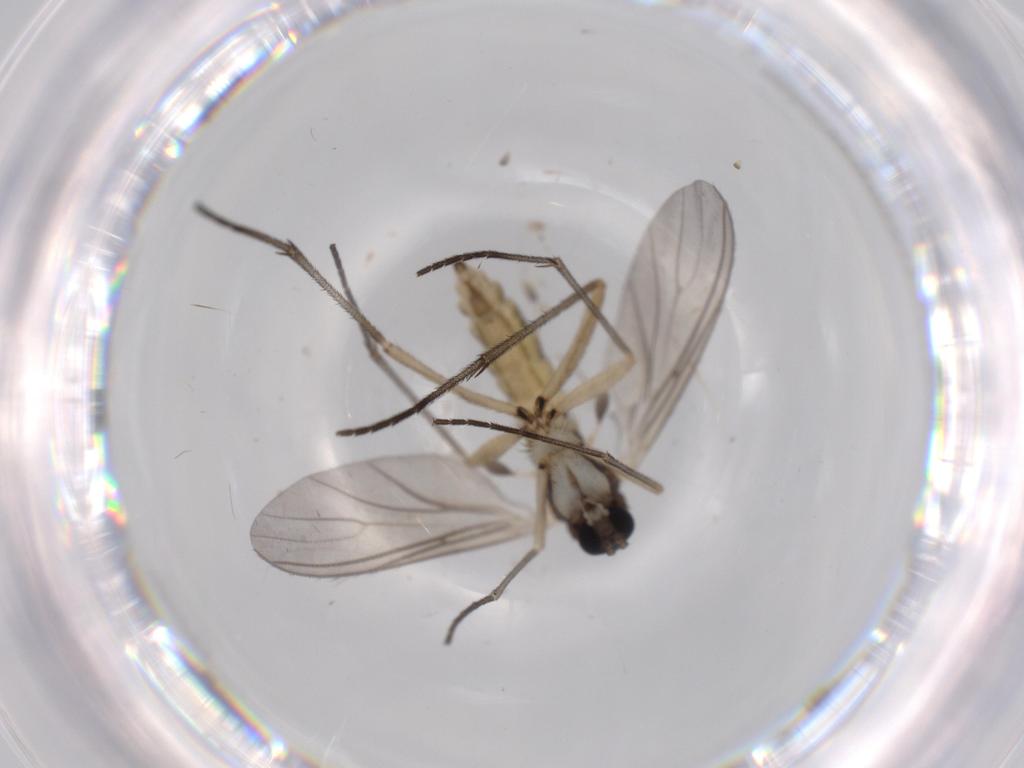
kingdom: Animalia
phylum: Arthropoda
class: Insecta
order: Diptera
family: Sciaridae
